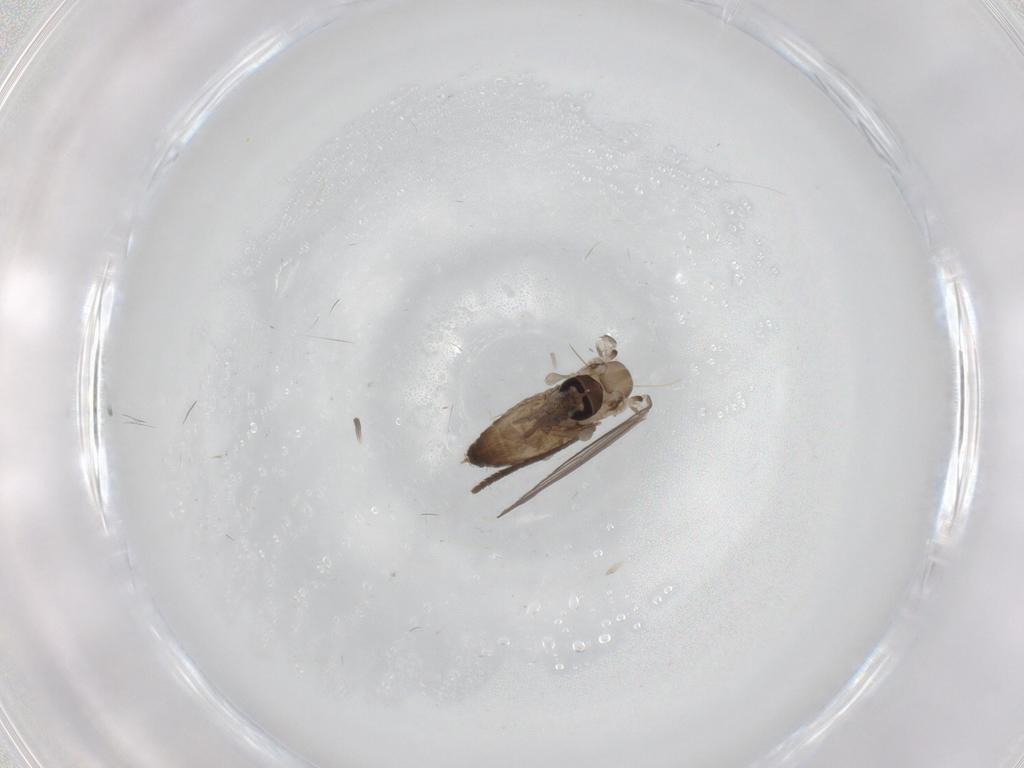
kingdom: Animalia
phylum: Arthropoda
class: Insecta
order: Diptera
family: Psychodidae
